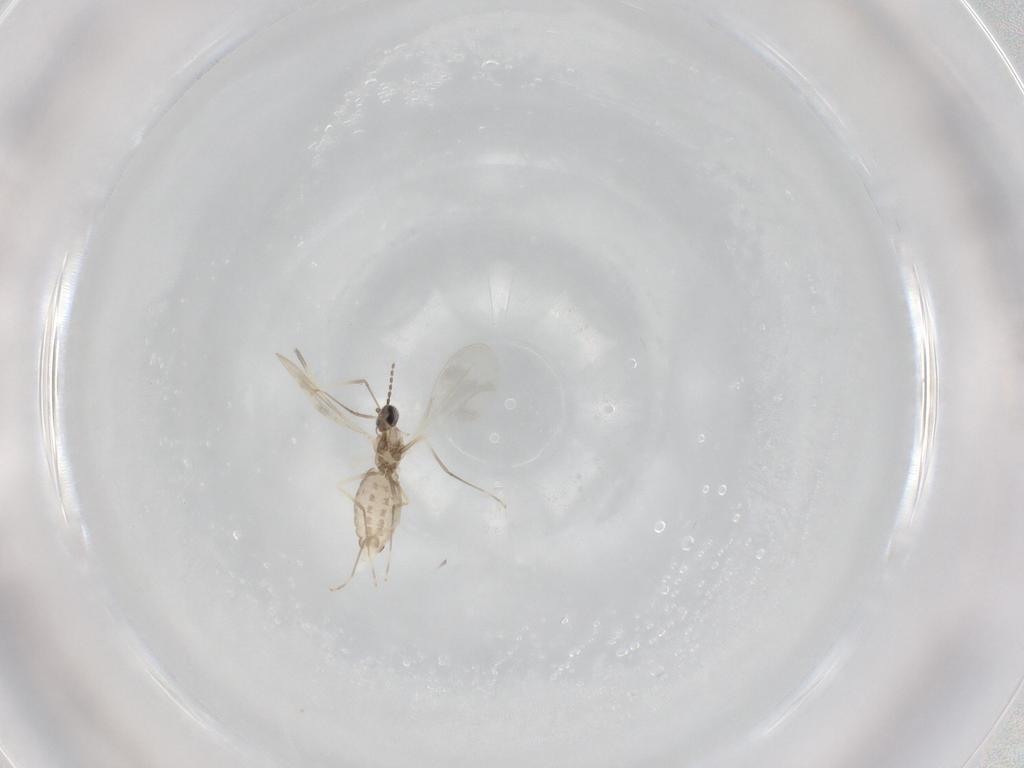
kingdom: Animalia
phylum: Arthropoda
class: Insecta
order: Diptera
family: Cecidomyiidae
